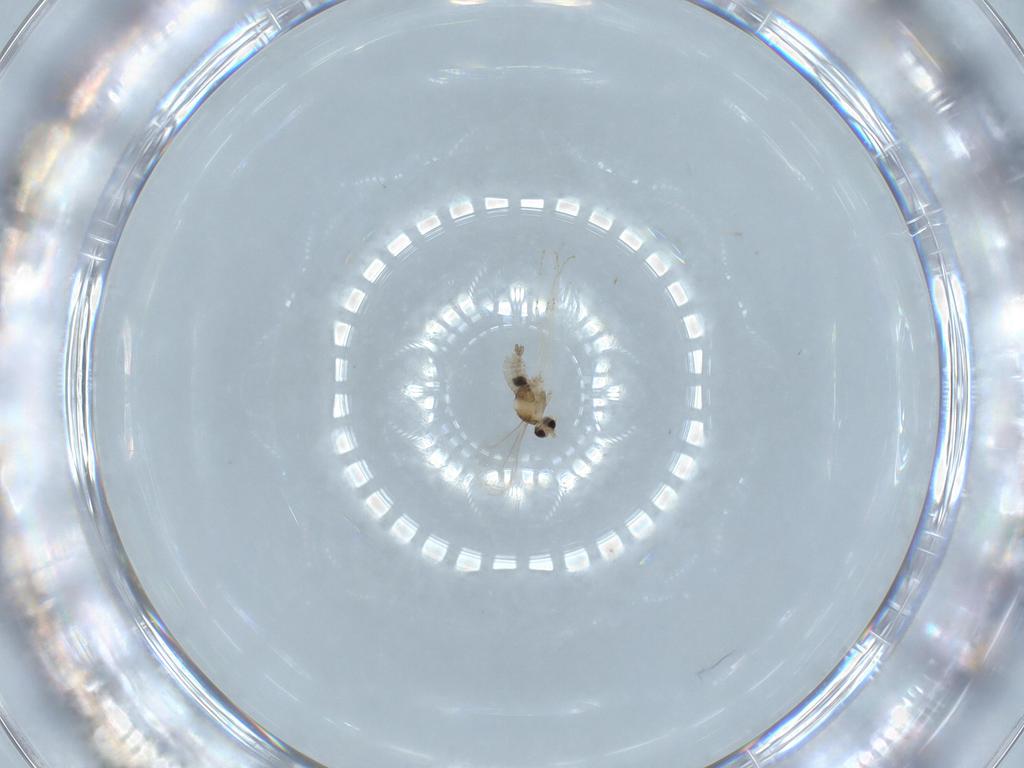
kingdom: Animalia
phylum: Arthropoda
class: Insecta
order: Diptera
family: Cecidomyiidae
